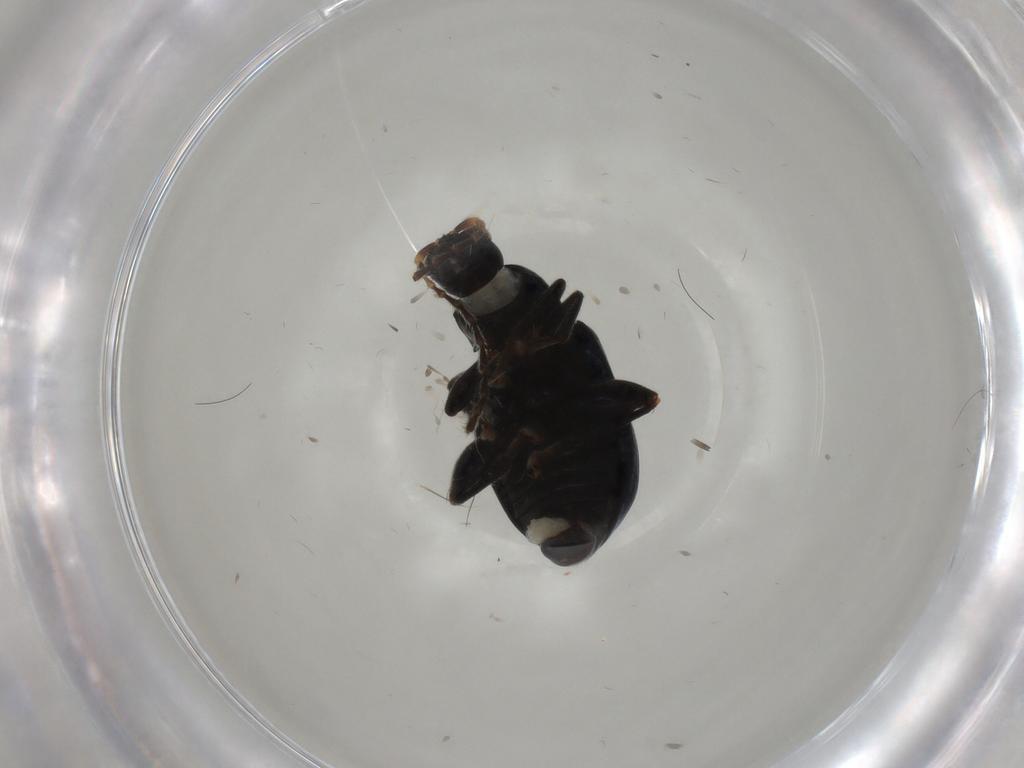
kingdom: Animalia
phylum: Arthropoda
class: Insecta
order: Coleoptera
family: Chrysomelidae
